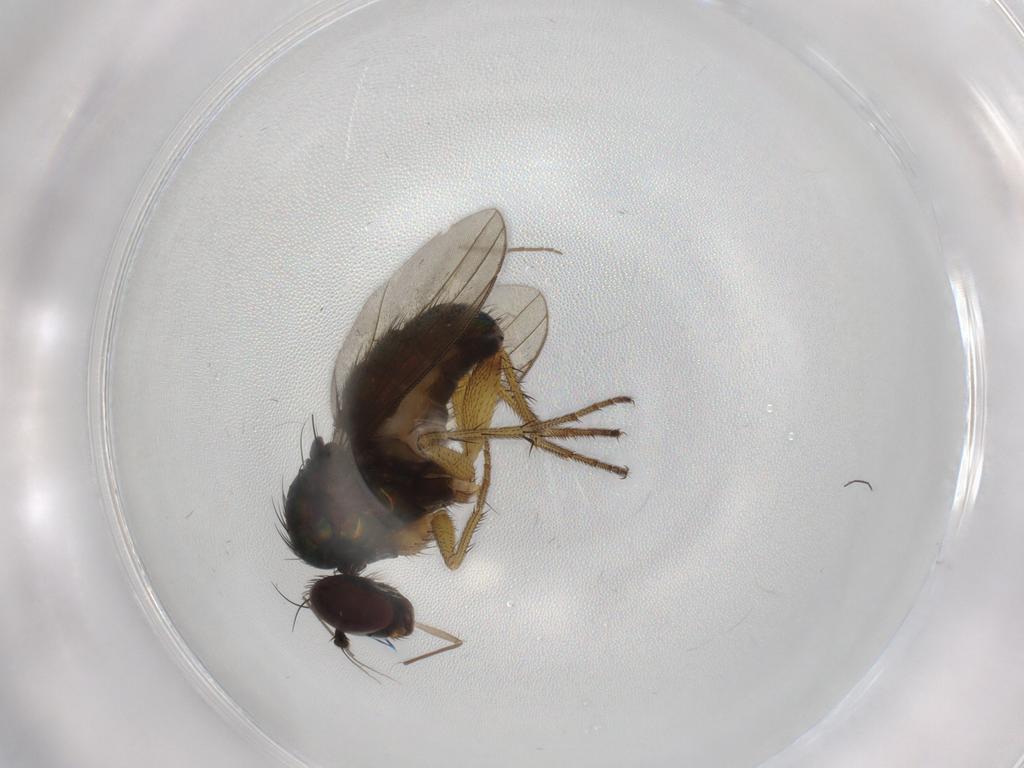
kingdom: Animalia
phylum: Arthropoda
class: Insecta
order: Diptera
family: Dolichopodidae
